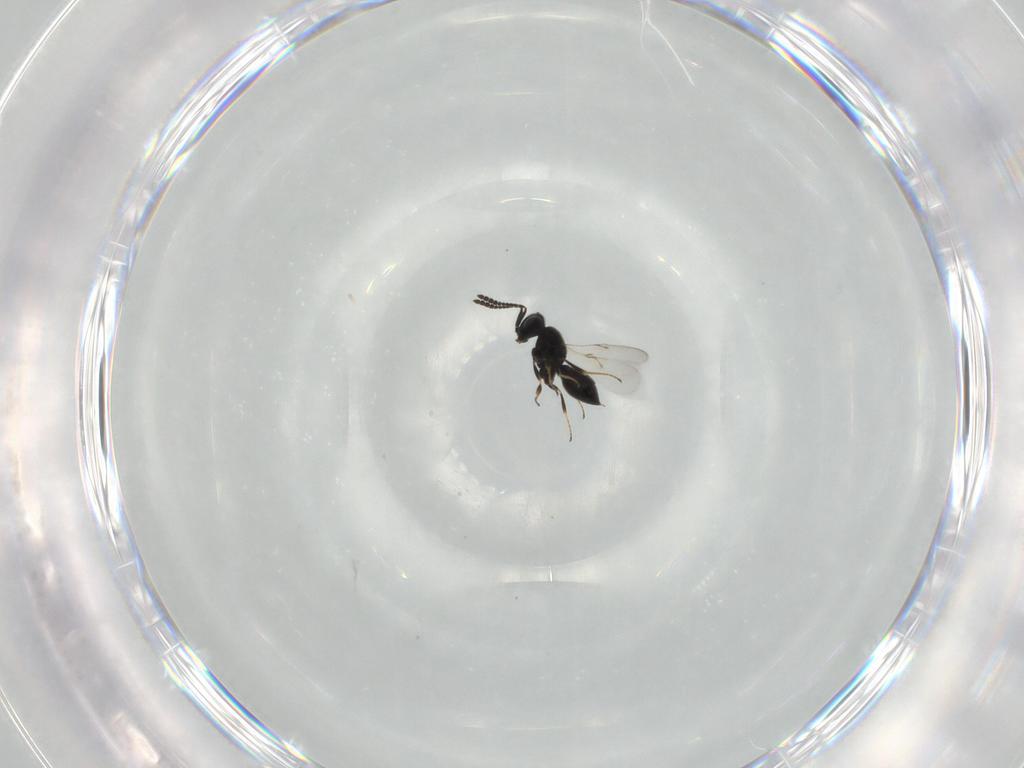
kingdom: Animalia
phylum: Arthropoda
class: Insecta
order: Hymenoptera
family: Scelionidae
